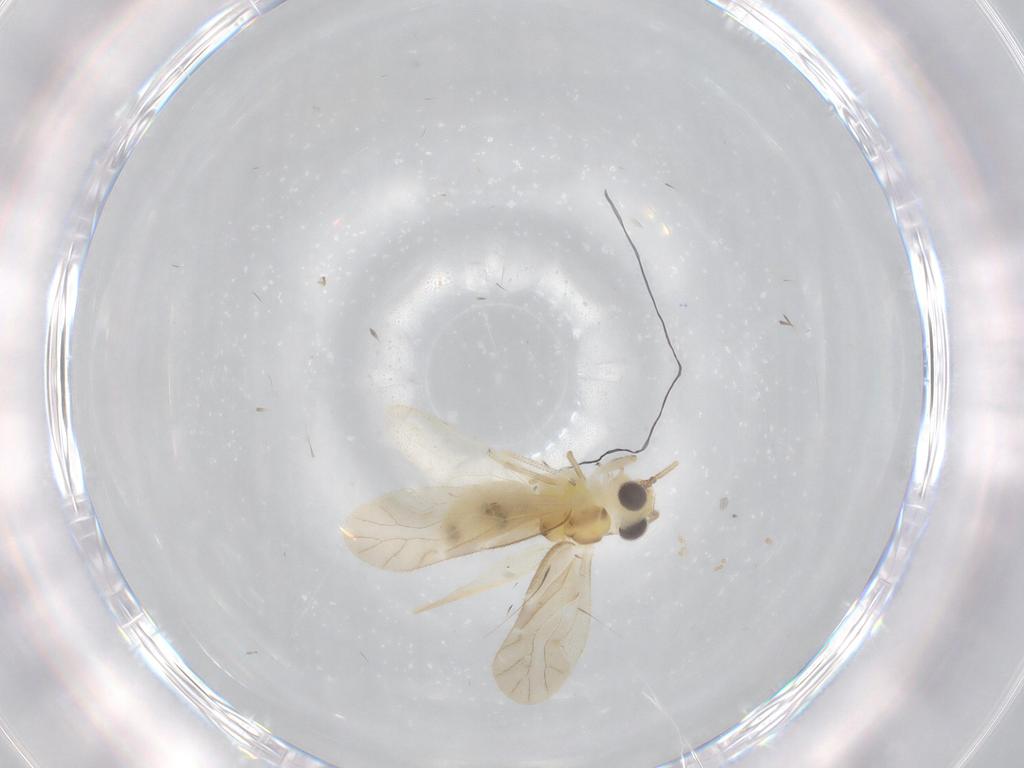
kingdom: Animalia
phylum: Arthropoda
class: Insecta
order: Psocodea
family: Caeciliusidae
